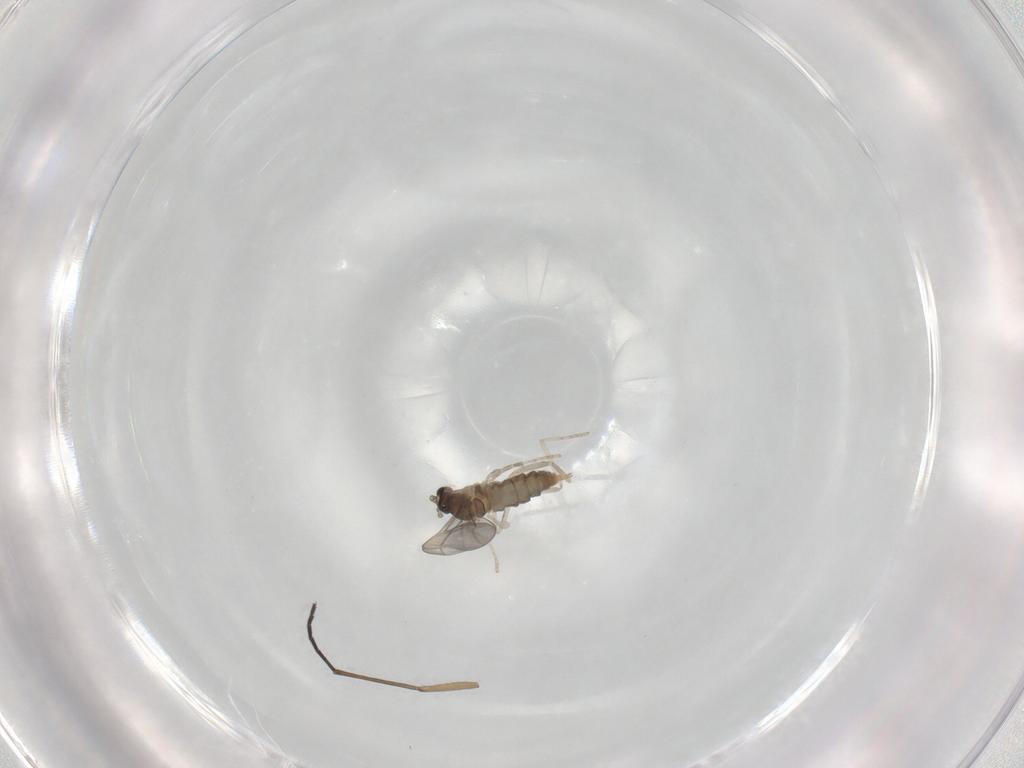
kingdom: Animalia
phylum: Arthropoda
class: Insecta
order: Diptera
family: Cecidomyiidae
